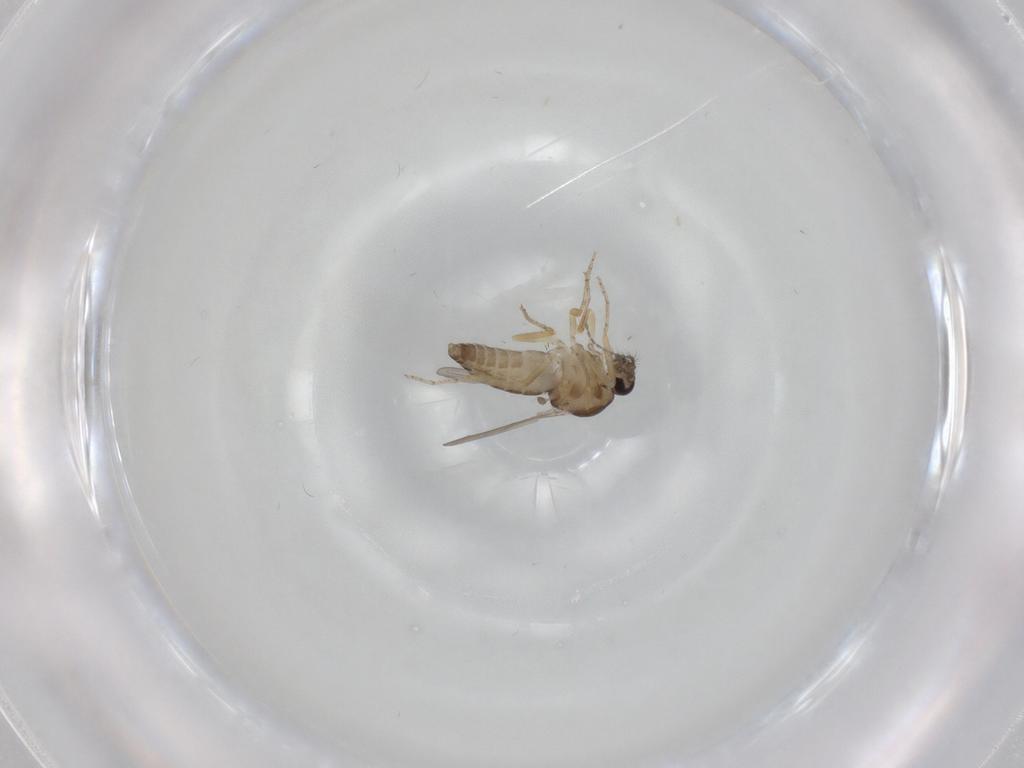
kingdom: Animalia
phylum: Arthropoda
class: Insecta
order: Diptera
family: Ceratopogonidae
